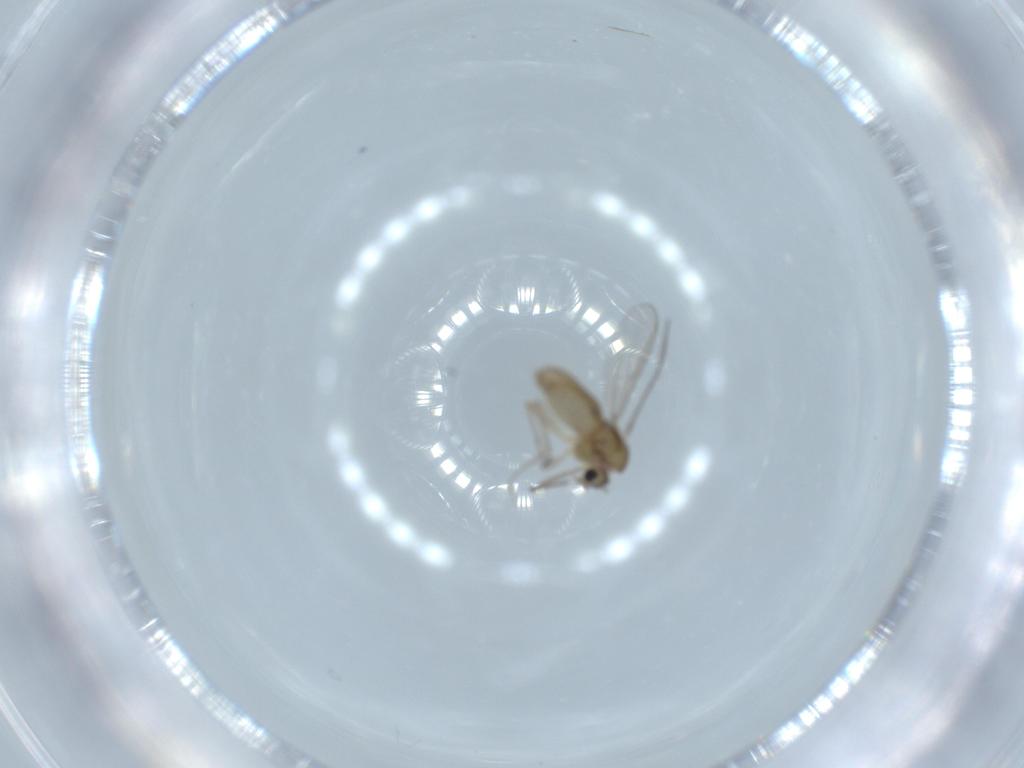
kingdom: Animalia
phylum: Arthropoda
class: Insecta
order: Diptera
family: Chironomidae
